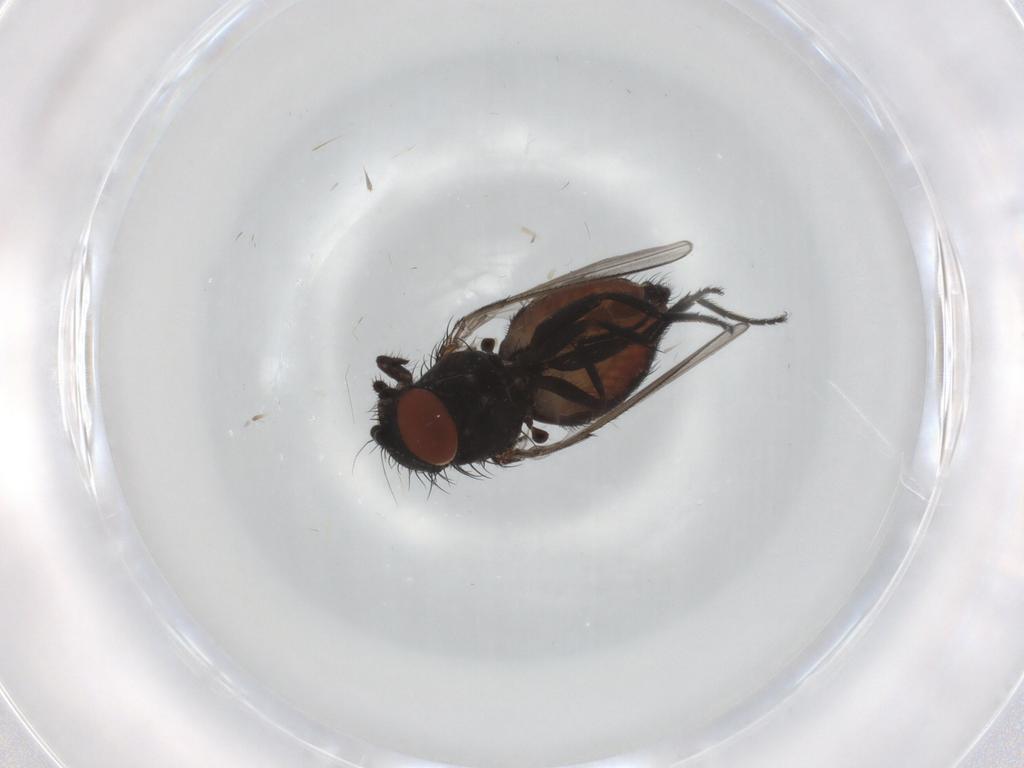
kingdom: Animalia
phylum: Arthropoda
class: Insecta
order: Diptera
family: Milichiidae
